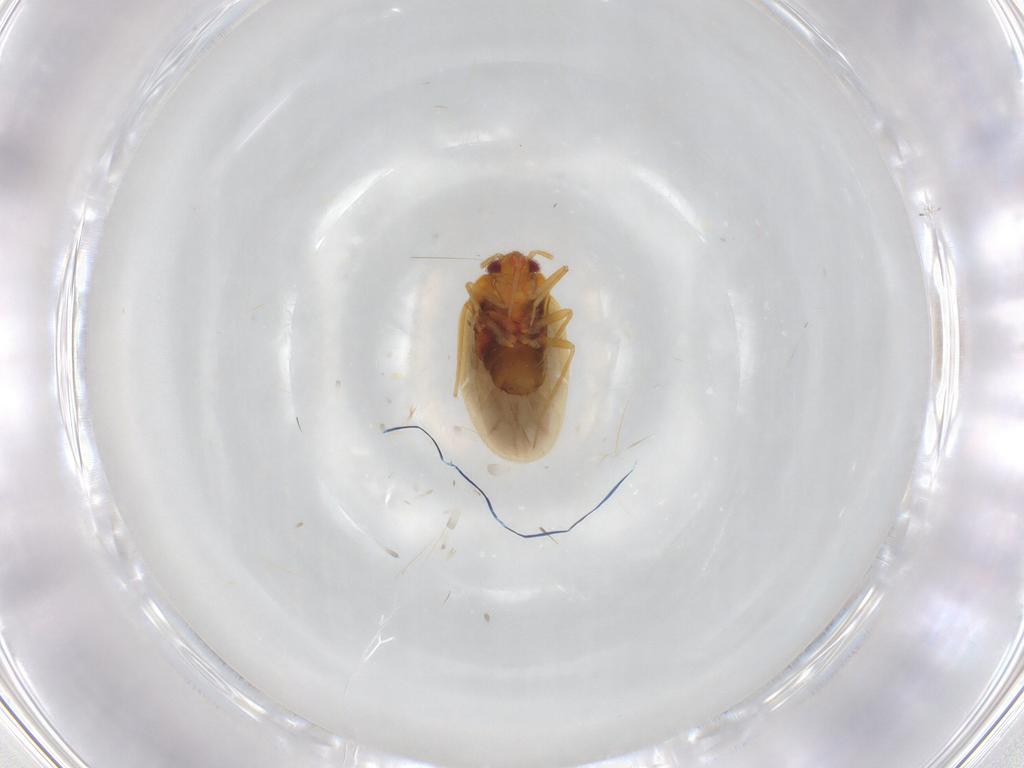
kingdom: Animalia
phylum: Arthropoda
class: Insecta
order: Hemiptera
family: Ceratocombidae
